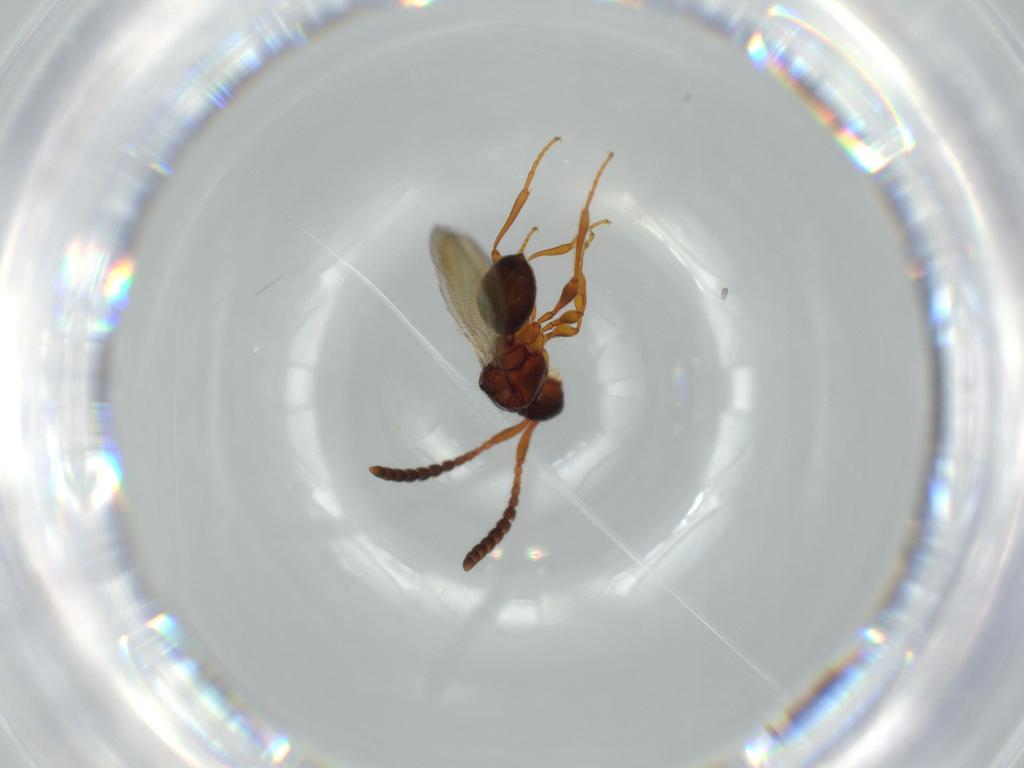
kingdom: Animalia
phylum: Arthropoda
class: Insecta
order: Hymenoptera
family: Diapriidae
